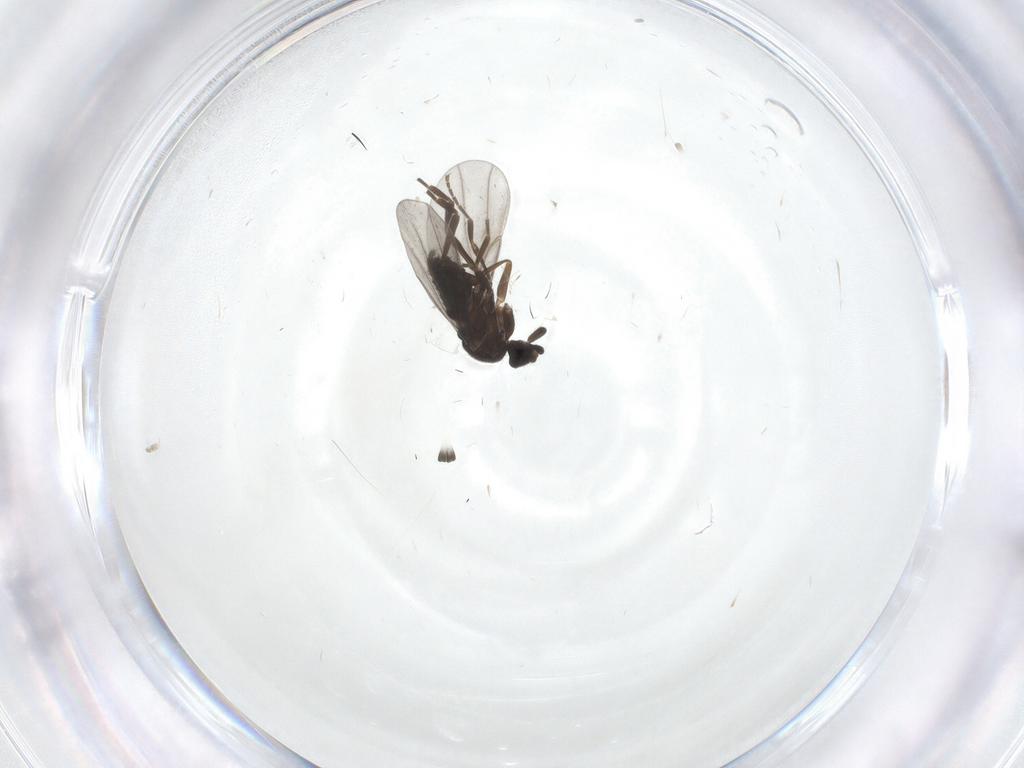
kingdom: Animalia
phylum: Arthropoda
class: Insecta
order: Diptera
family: Sciaridae
